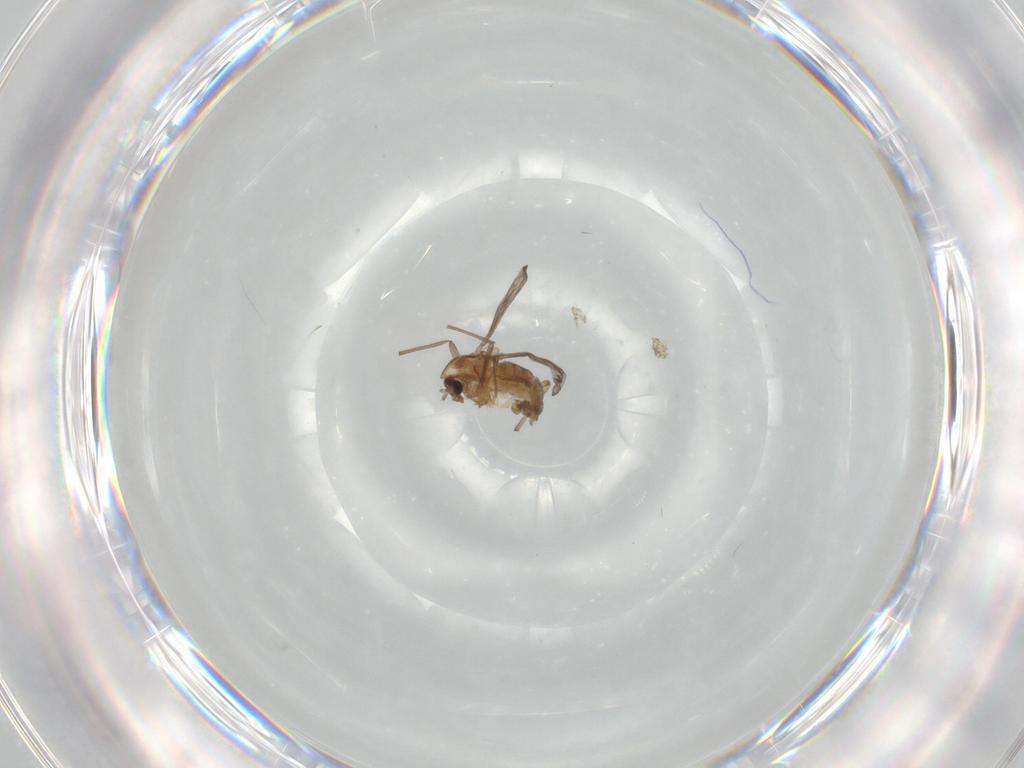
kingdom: Animalia
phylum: Arthropoda
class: Insecta
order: Diptera
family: Chironomidae
